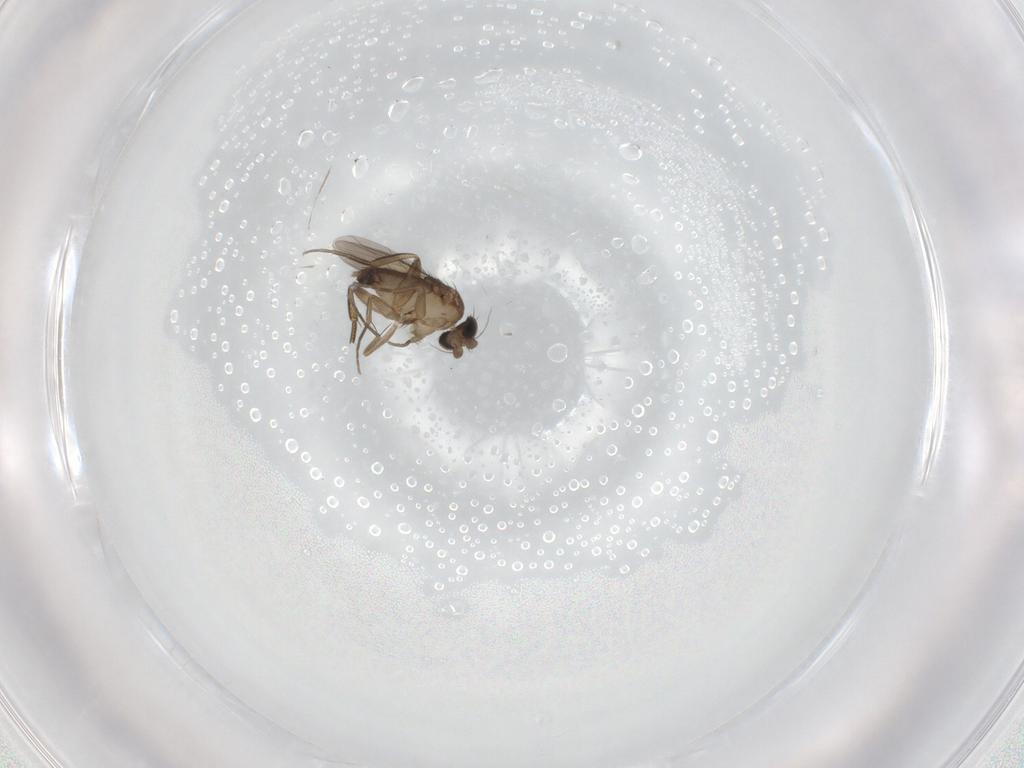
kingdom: Animalia
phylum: Arthropoda
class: Insecta
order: Diptera
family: Phoridae
